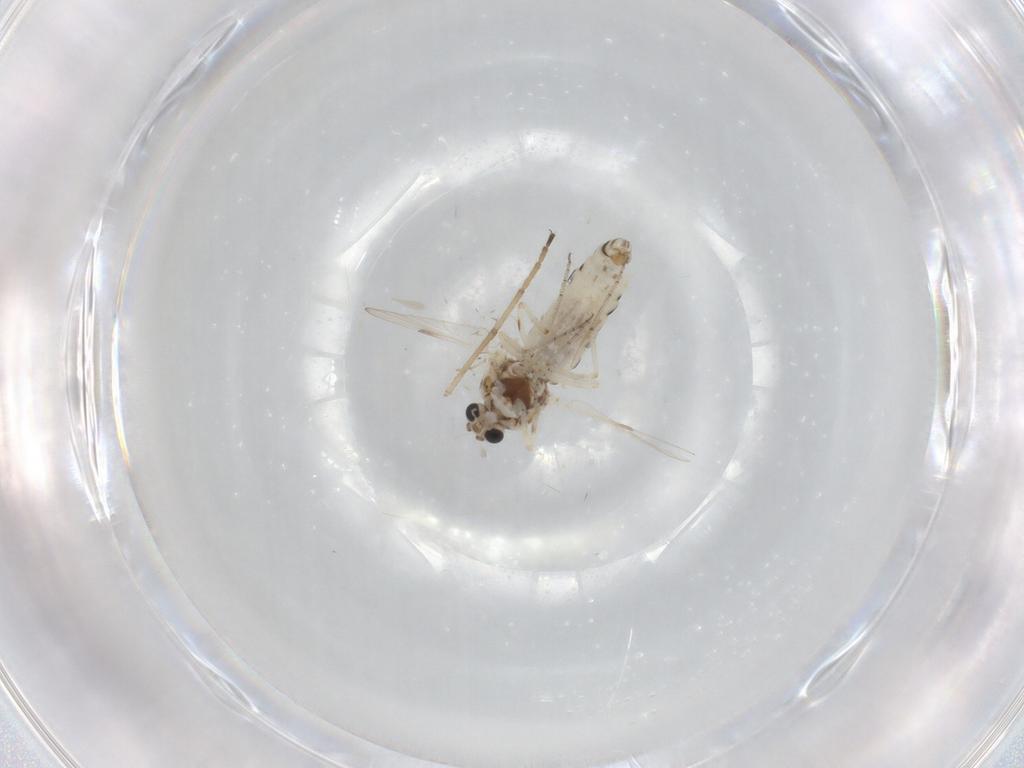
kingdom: Animalia
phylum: Arthropoda
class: Insecta
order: Diptera
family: Ceratopogonidae
